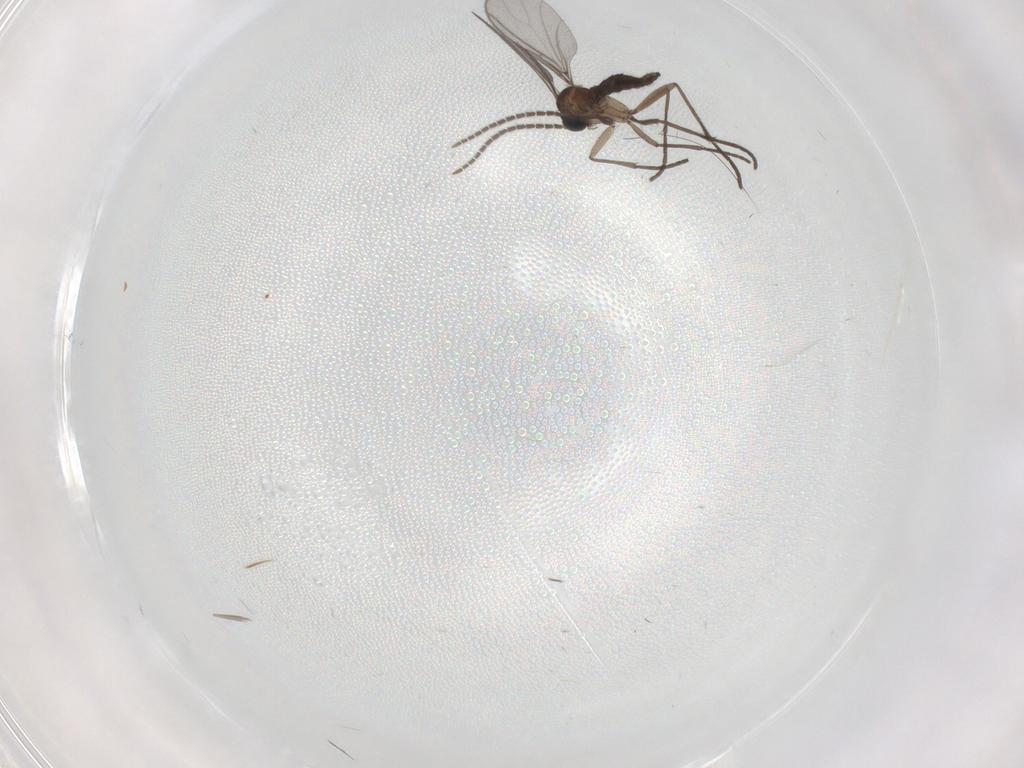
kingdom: Animalia
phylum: Arthropoda
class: Insecta
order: Diptera
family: Sciaridae
